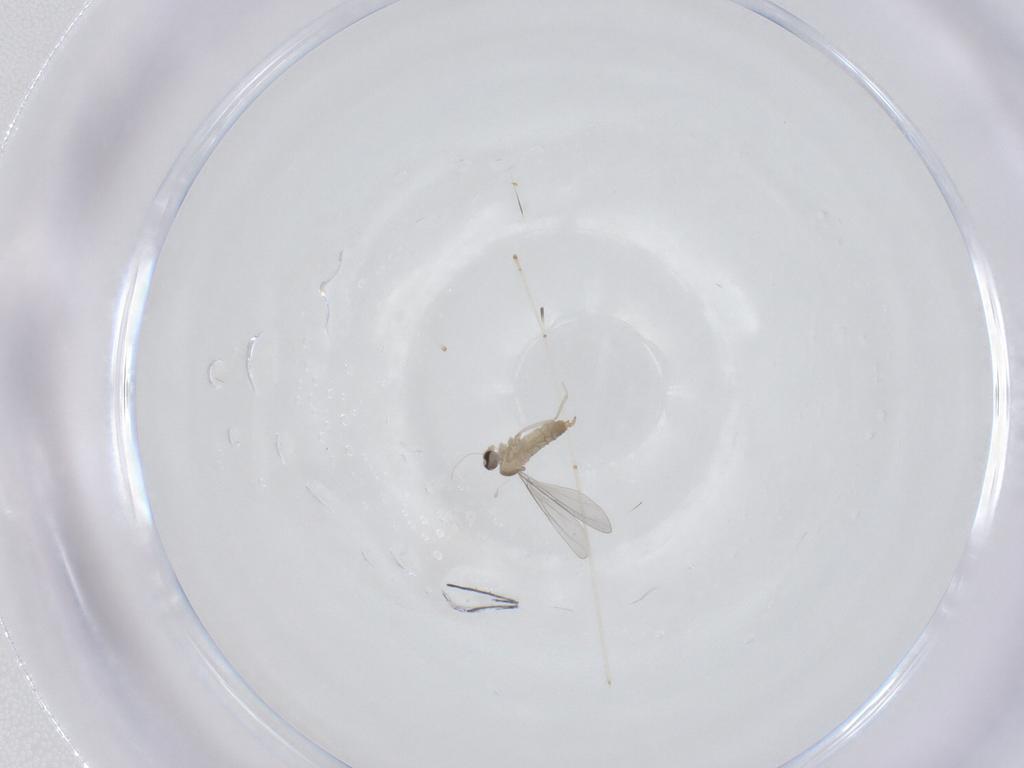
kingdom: Animalia
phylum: Arthropoda
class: Insecta
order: Diptera
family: Cecidomyiidae
